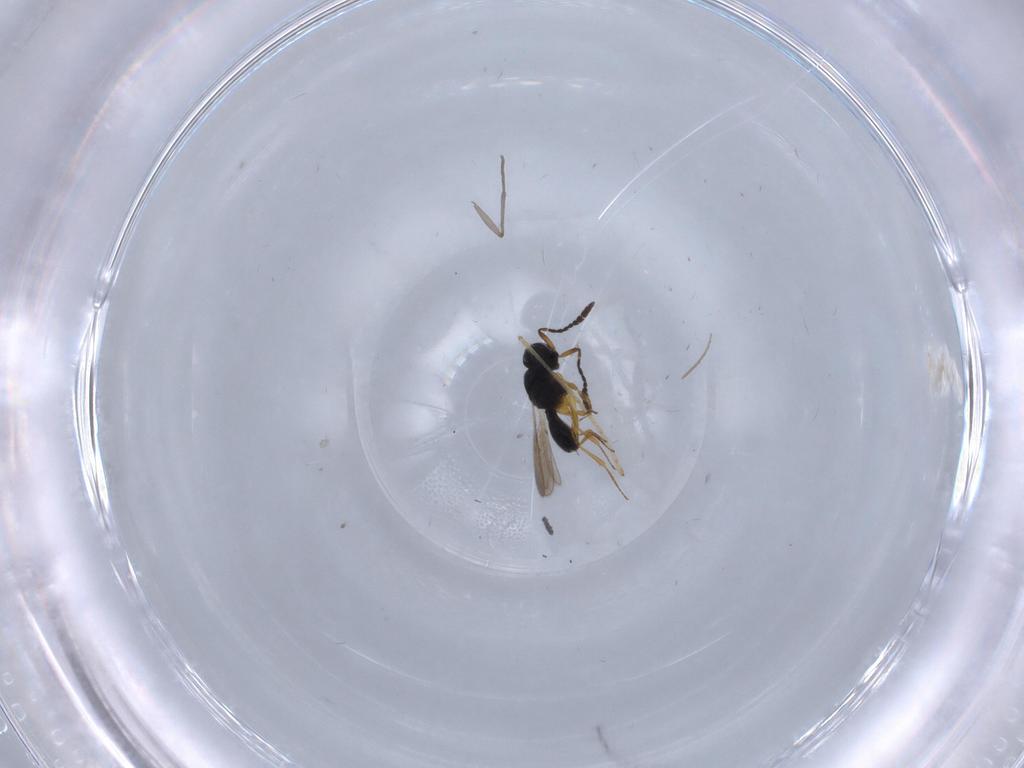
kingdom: Animalia
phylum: Arthropoda
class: Insecta
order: Hymenoptera
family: Scelionidae
